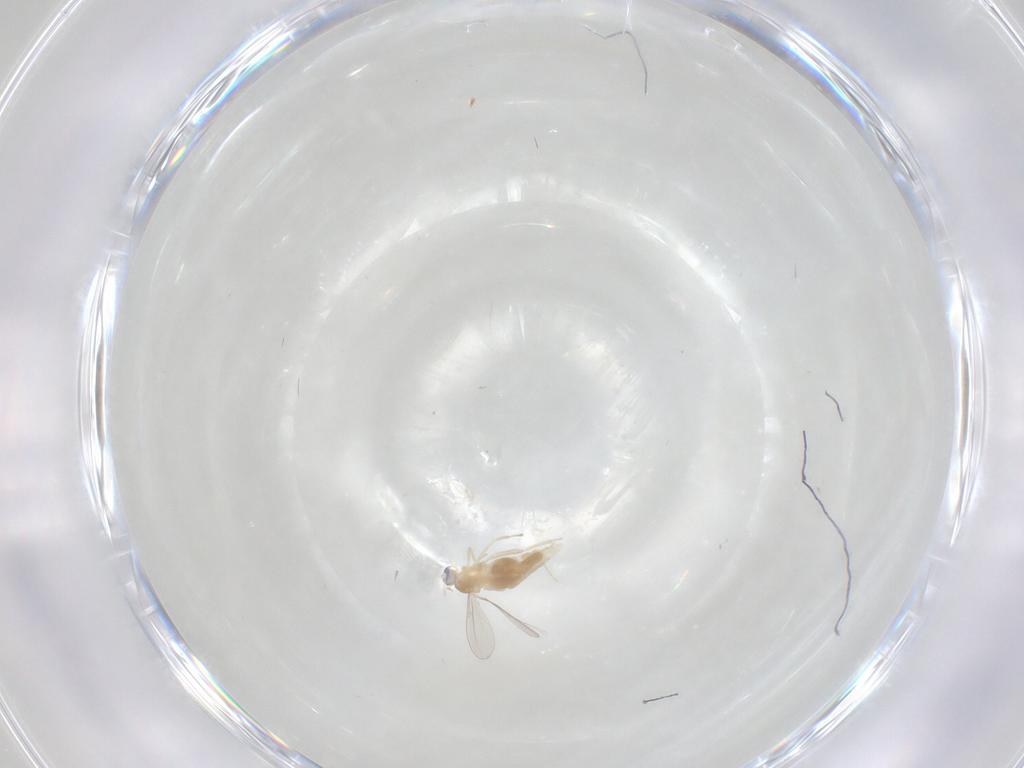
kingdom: Animalia
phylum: Arthropoda
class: Insecta
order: Diptera
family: Cecidomyiidae
